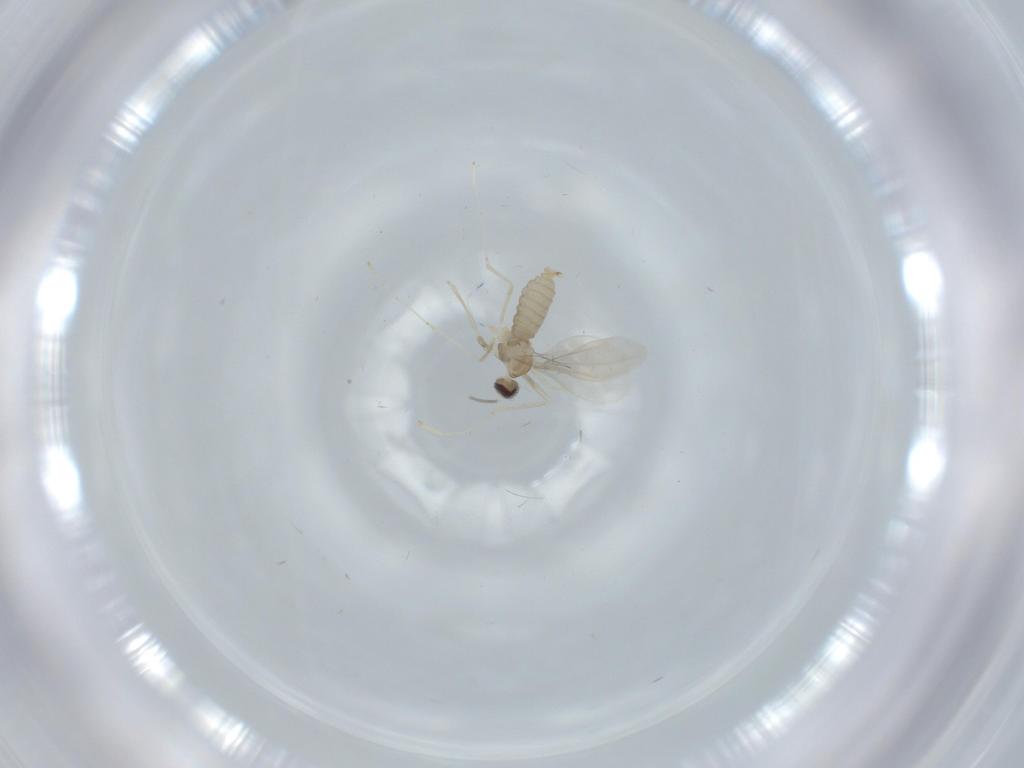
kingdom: Animalia
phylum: Arthropoda
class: Insecta
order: Diptera
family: Cecidomyiidae
